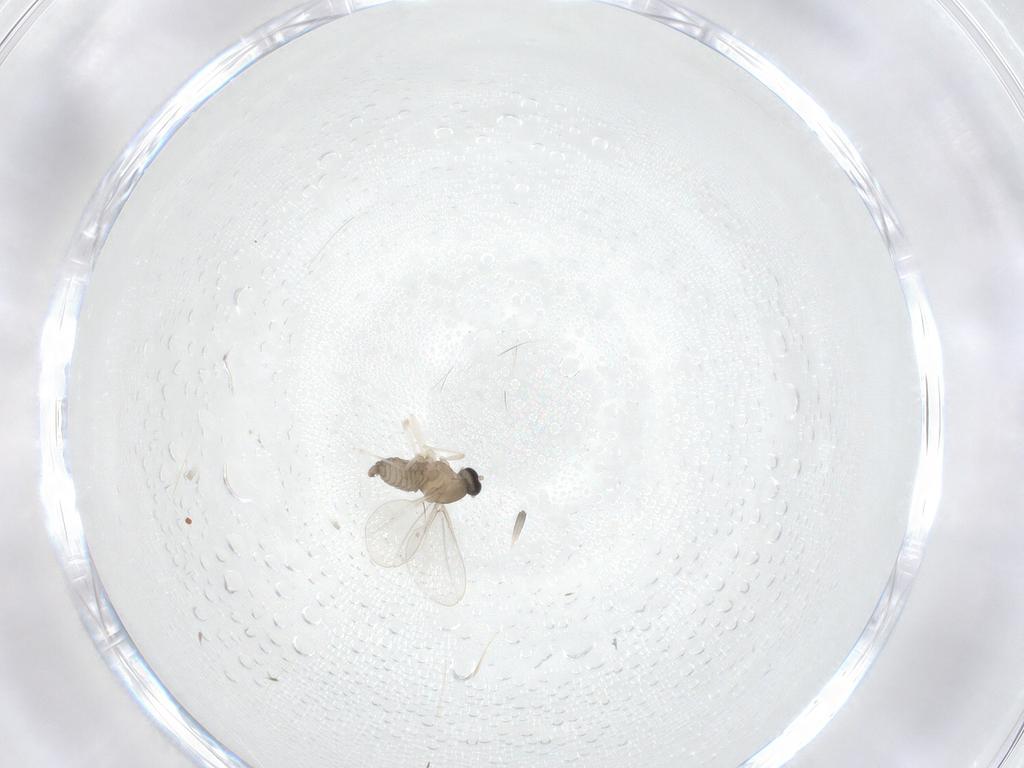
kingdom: Animalia
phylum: Arthropoda
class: Insecta
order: Diptera
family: Cecidomyiidae
